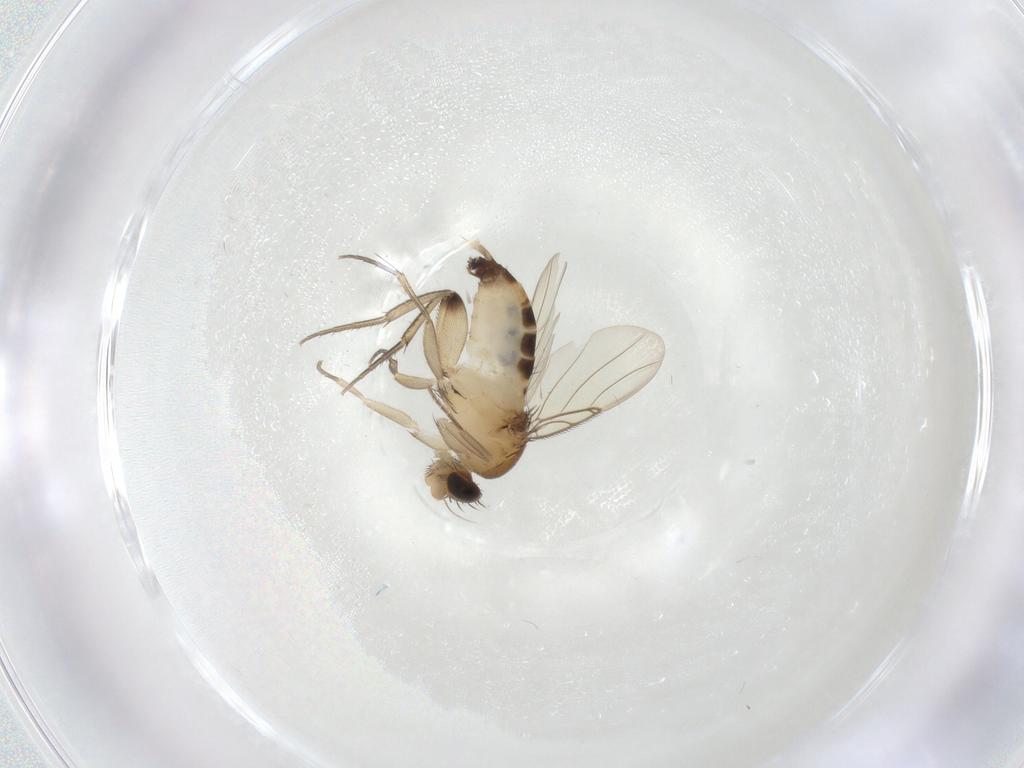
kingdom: Animalia
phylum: Arthropoda
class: Insecta
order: Diptera
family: Phoridae
